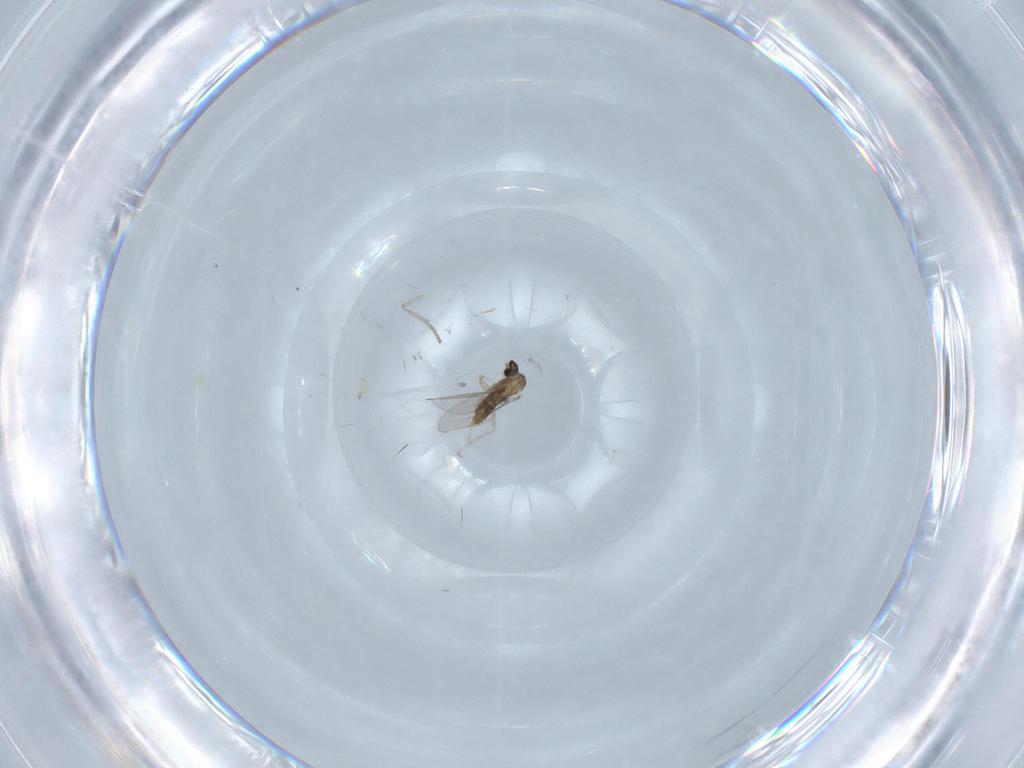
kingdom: Animalia
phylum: Arthropoda
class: Insecta
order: Diptera
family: Cecidomyiidae
